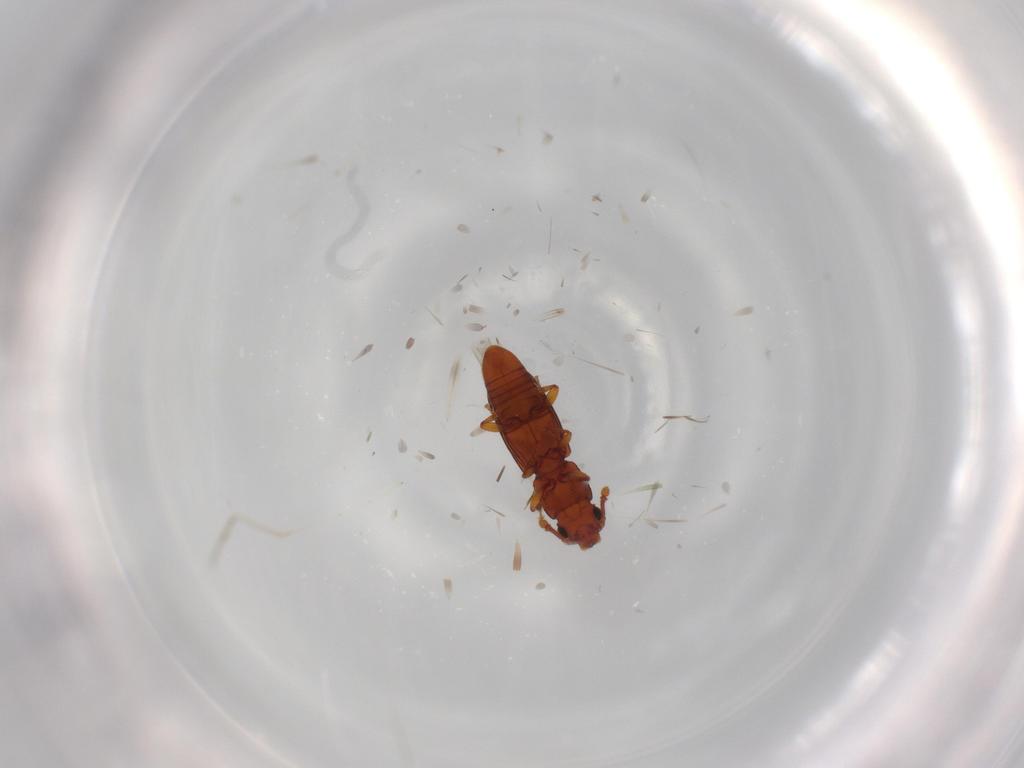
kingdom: Animalia
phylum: Arthropoda
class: Insecta
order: Coleoptera
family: Monotomidae
